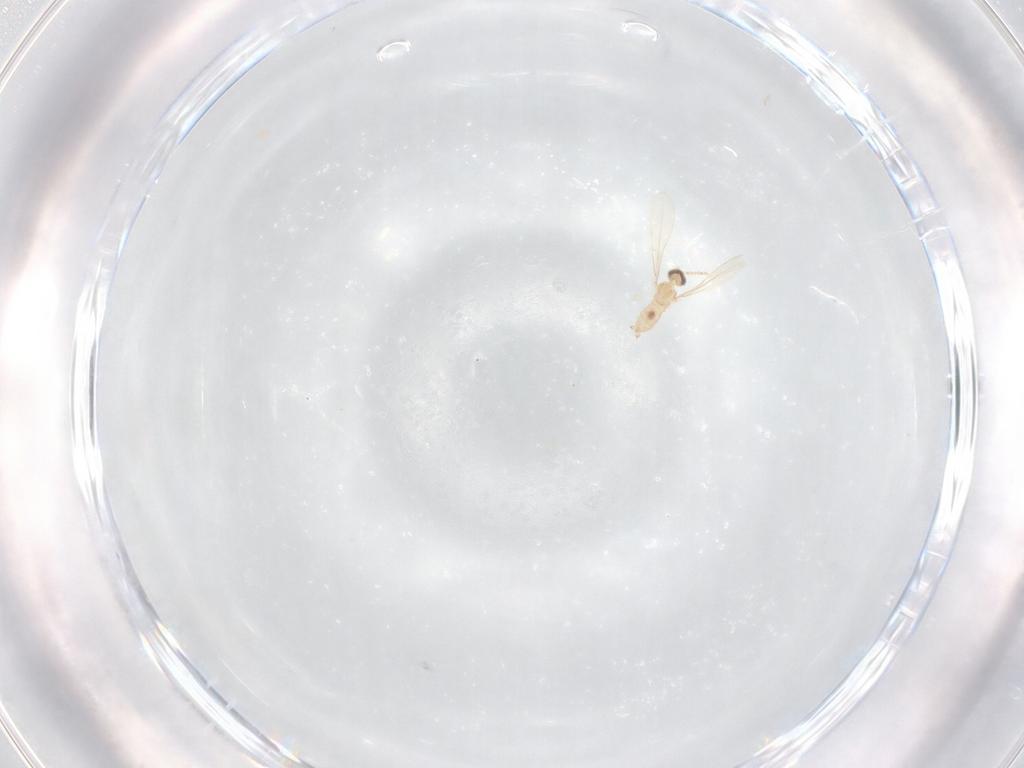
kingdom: Animalia
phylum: Arthropoda
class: Insecta
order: Diptera
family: Cecidomyiidae
